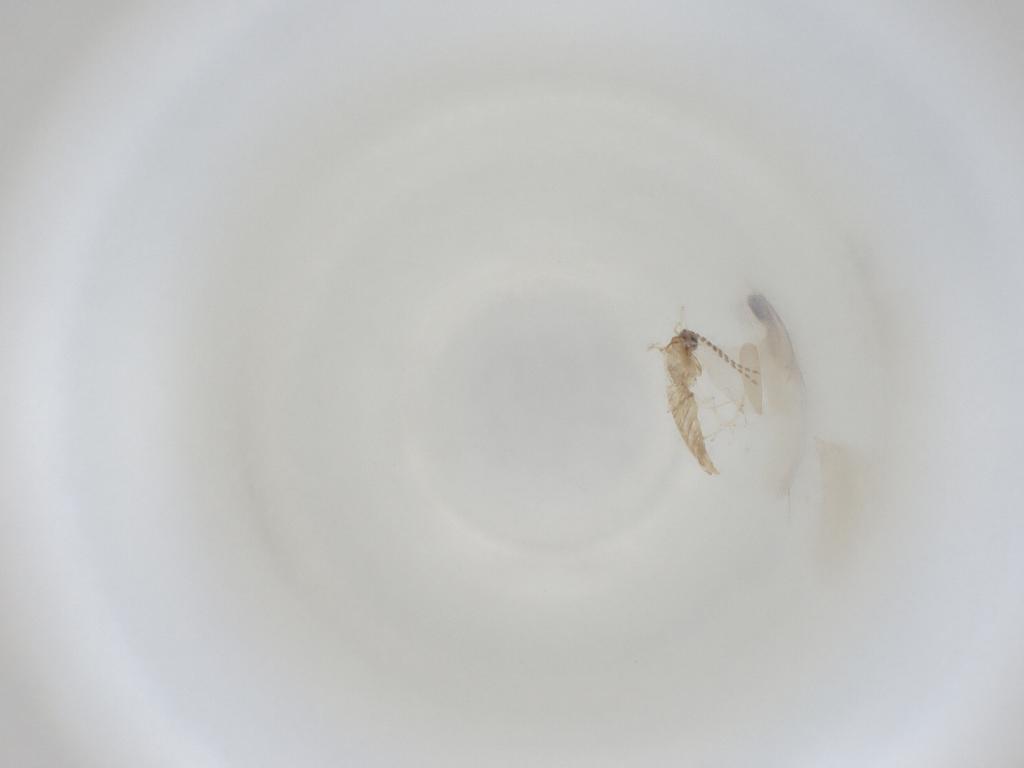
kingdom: Animalia
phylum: Arthropoda
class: Insecta
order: Diptera
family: Cecidomyiidae
